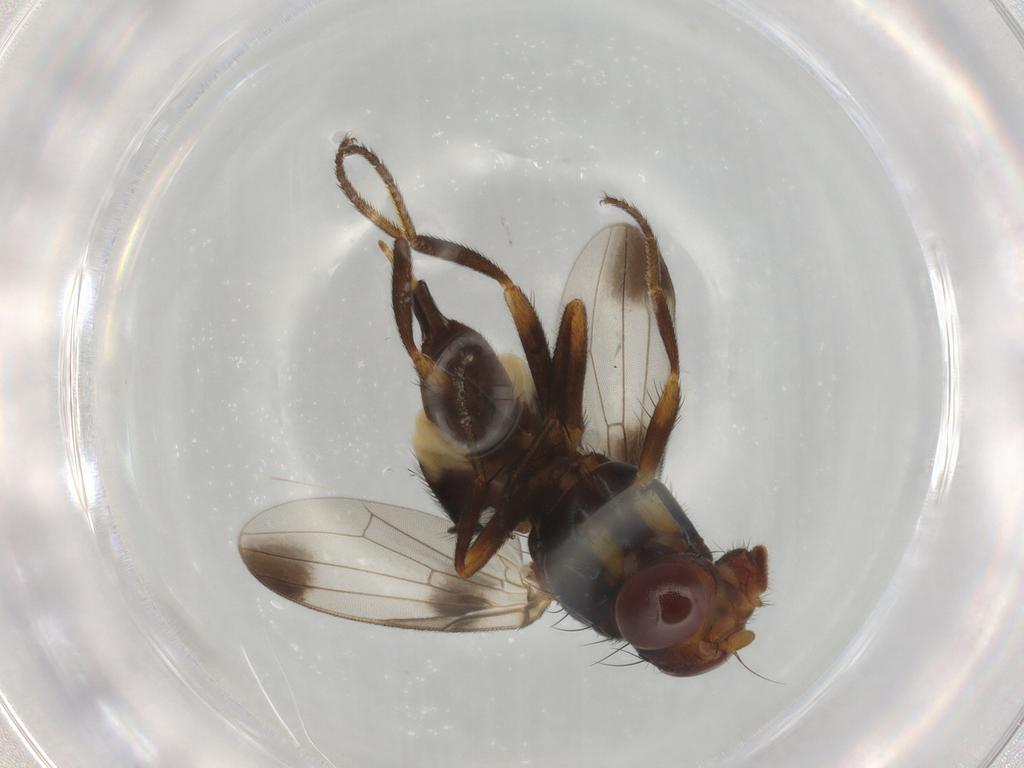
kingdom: Animalia
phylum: Arthropoda
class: Insecta
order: Diptera
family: Ulidiidae
